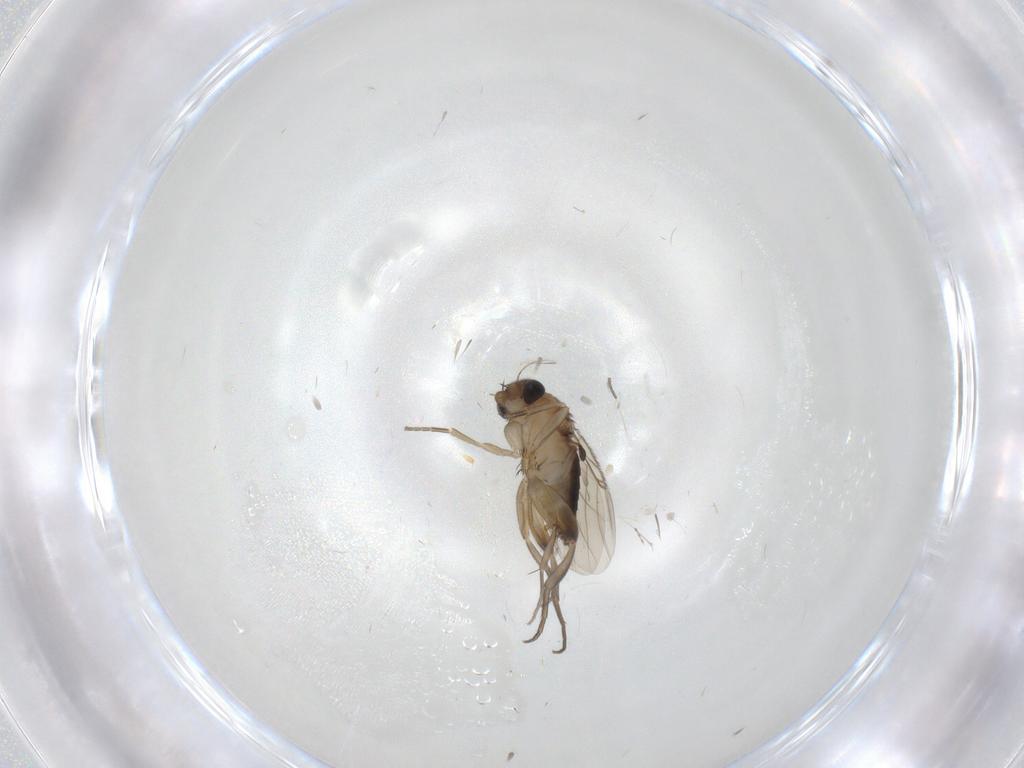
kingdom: Animalia
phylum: Arthropoda
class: Insecta
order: Diptera
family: Phoridae
